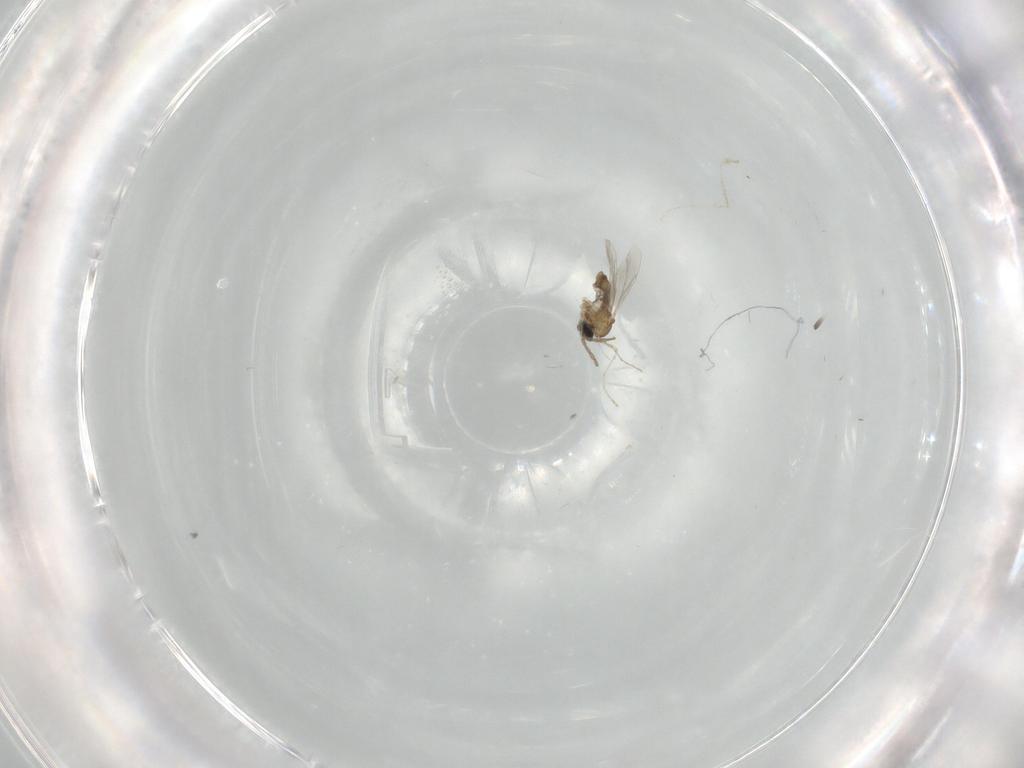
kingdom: Animalia
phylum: Arthropoda
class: Insecta
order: Diptera
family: Cecidomyiidae
